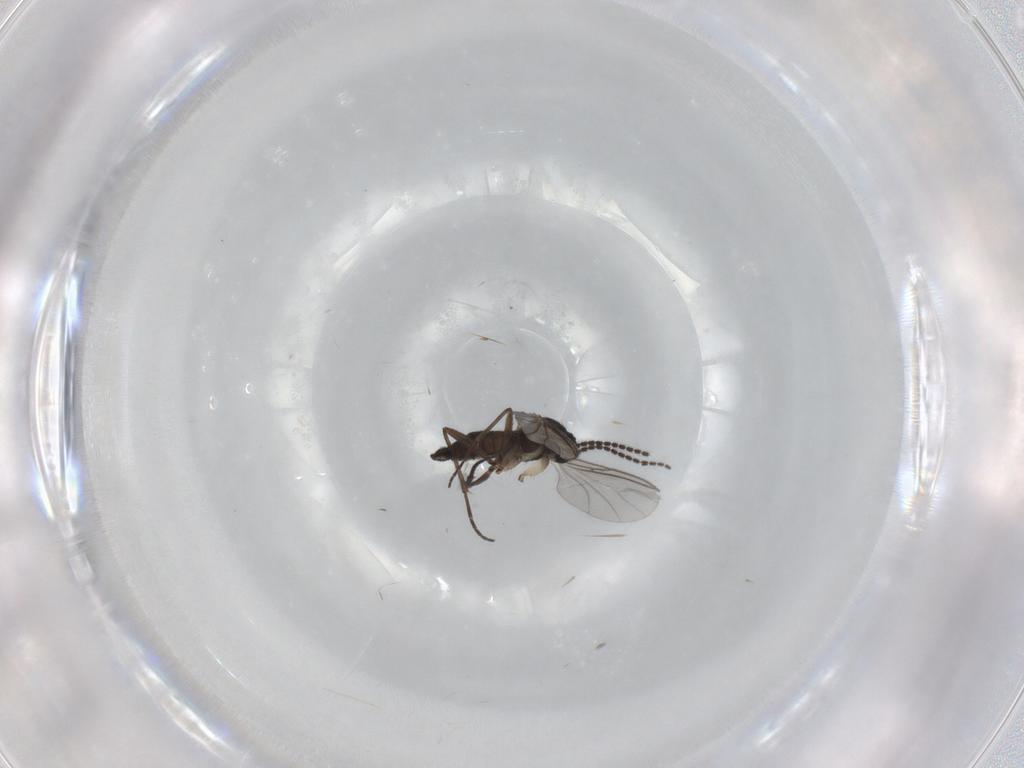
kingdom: Animalia
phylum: Arthropoda
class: Insecta
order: Diptera
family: Sciaridae
